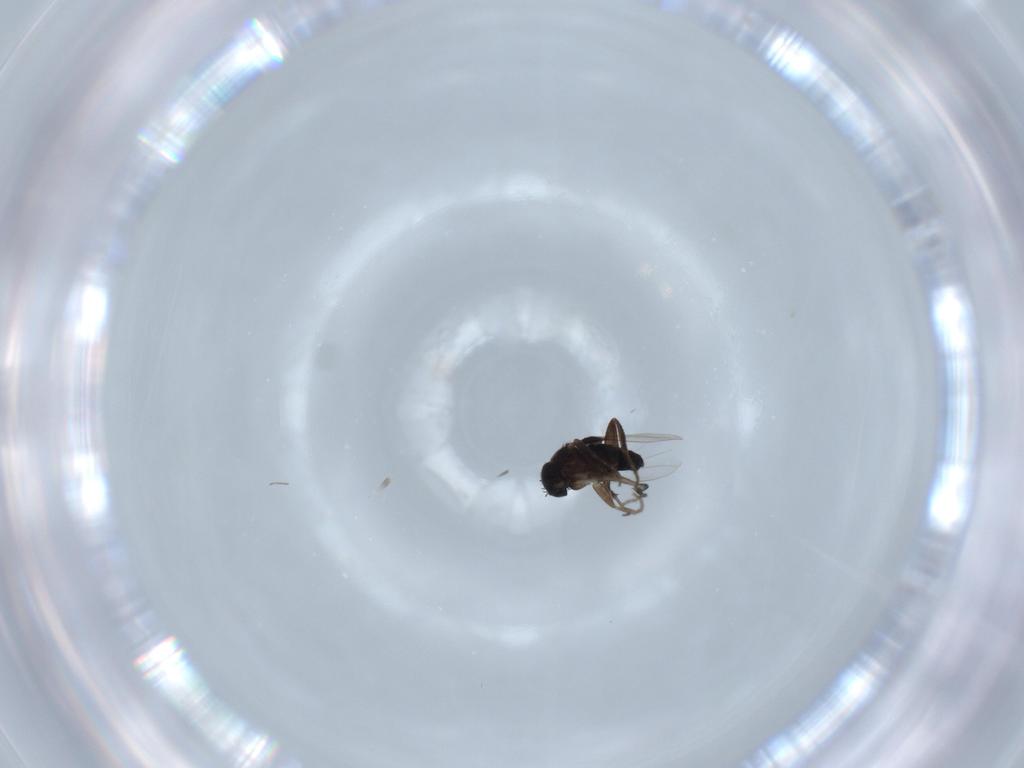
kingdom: Animalia
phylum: Arthropoda
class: Insecta
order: Diptera
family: Phoridae
